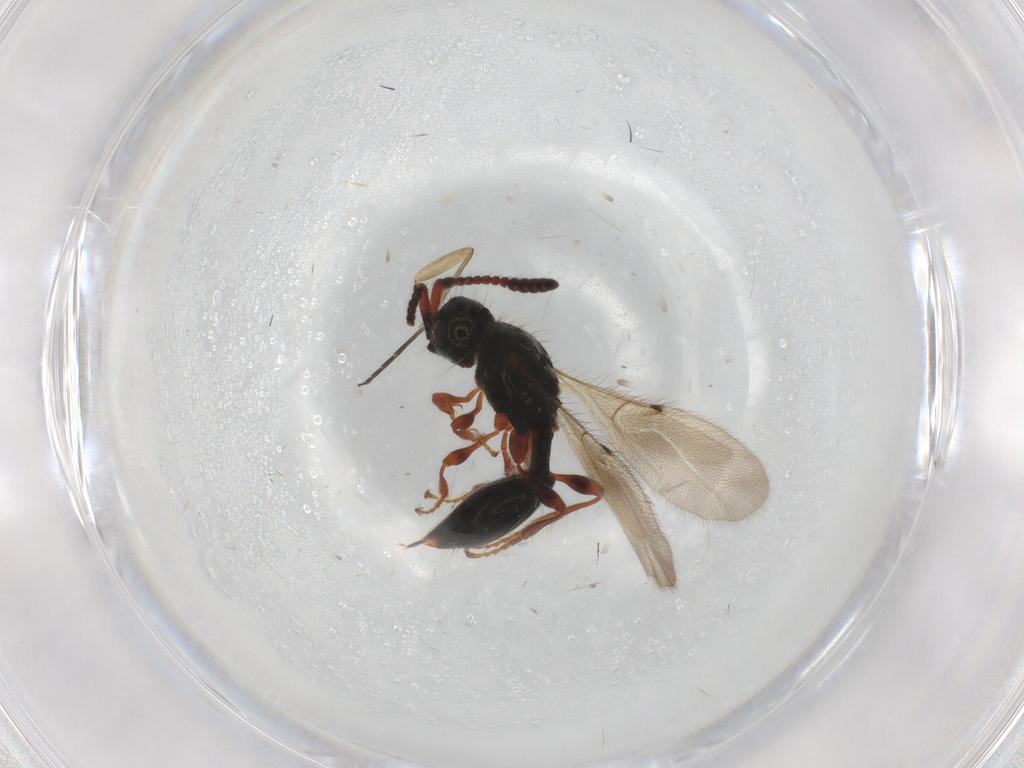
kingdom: Animalia
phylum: Arthropoda
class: Insecta
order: Hymenoptera
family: Diapriidae
